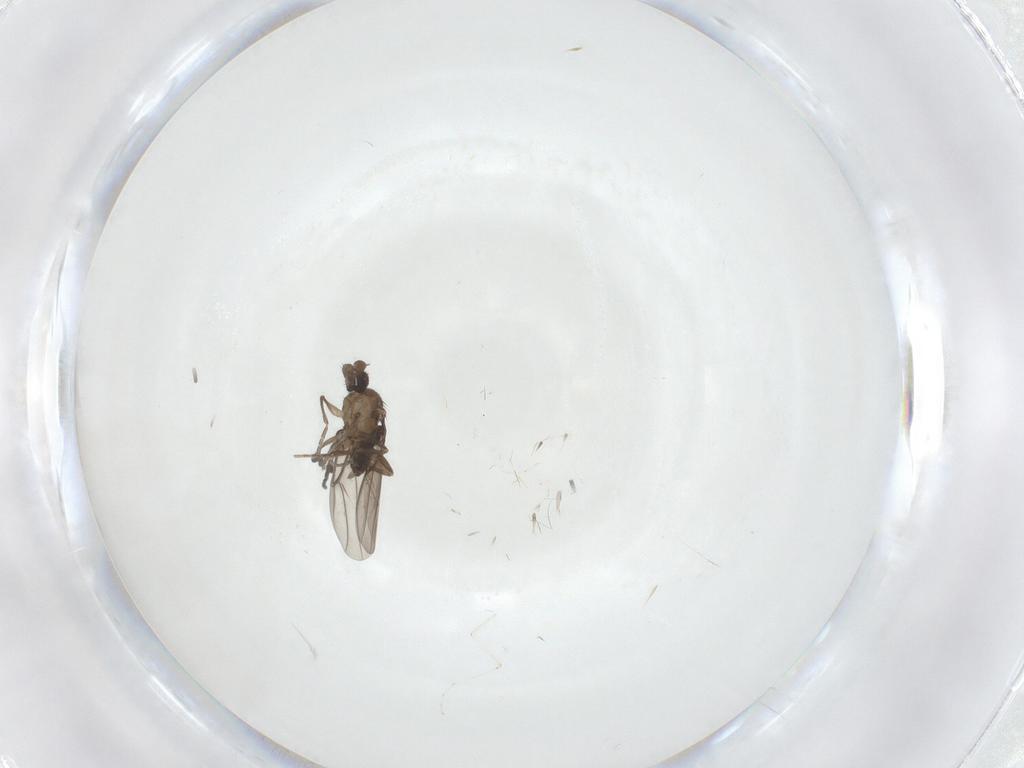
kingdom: Animalia
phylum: Arthropoda
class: Insecta
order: Diptera
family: Phoridae
